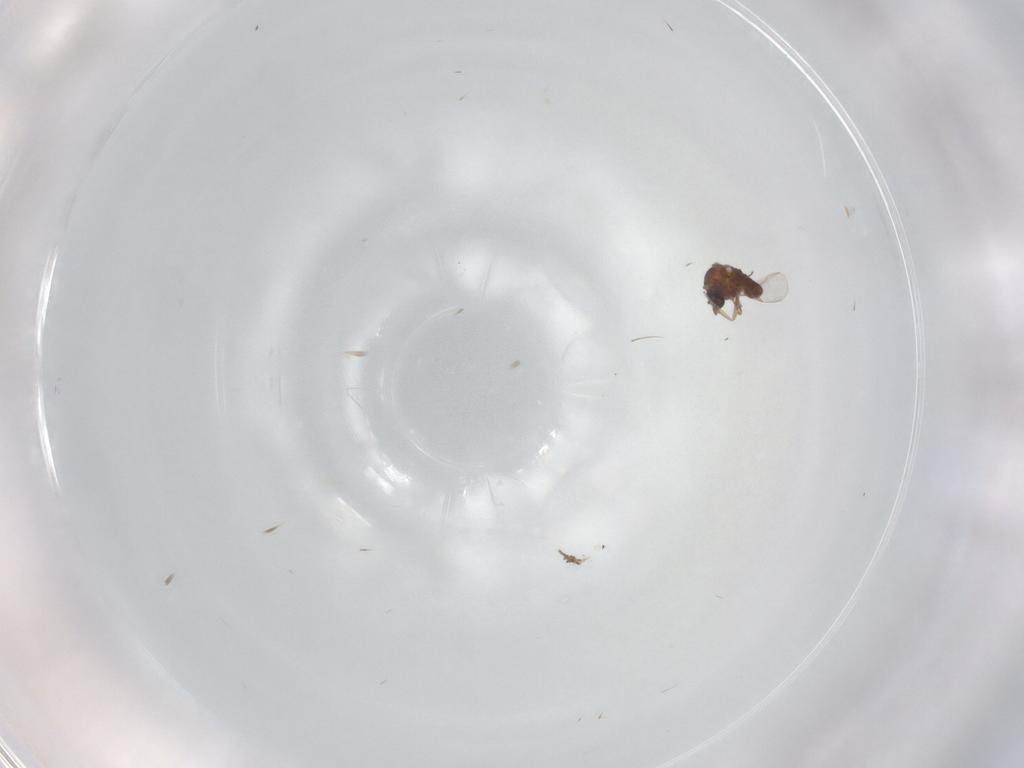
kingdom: Animalia
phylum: Arthropoda
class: Insecta
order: Diptera
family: Ceratopogonidae
